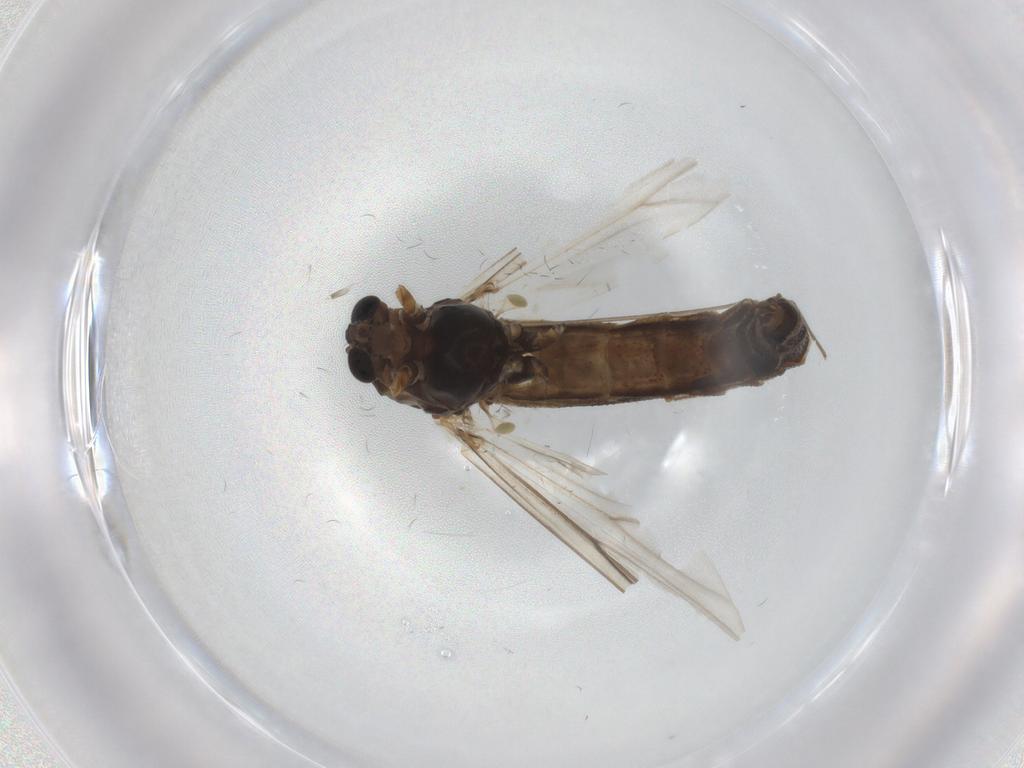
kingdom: Animalia
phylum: Arthropoda
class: Insecta
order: Diptera
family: Chironomidae
